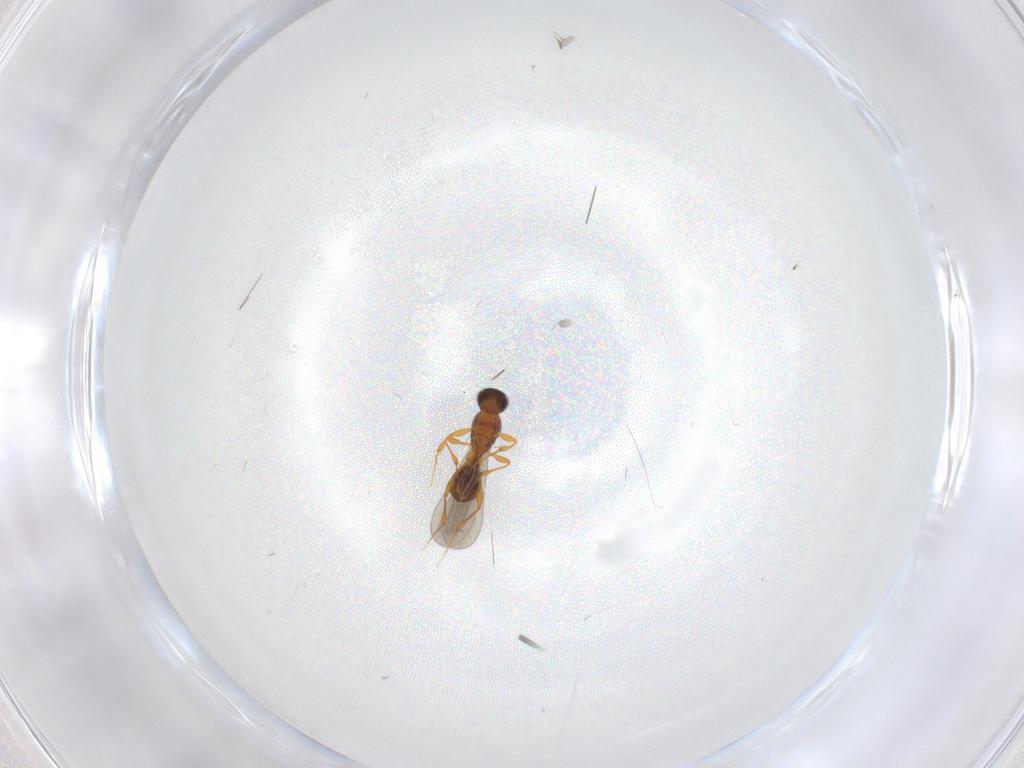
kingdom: Animalia
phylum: Arthropoda
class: Insecta
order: Hymenoptera
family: Platygastridae
